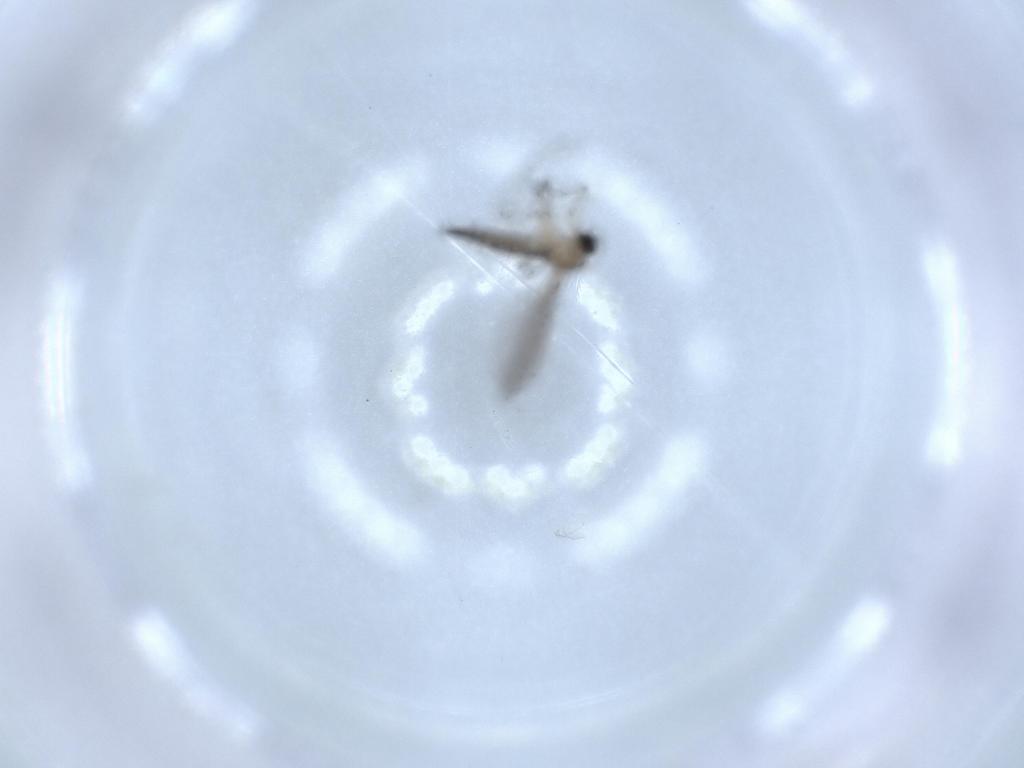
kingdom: Animalia
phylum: Arthropoda
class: Insecta
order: Diptera
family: Sciaridae
